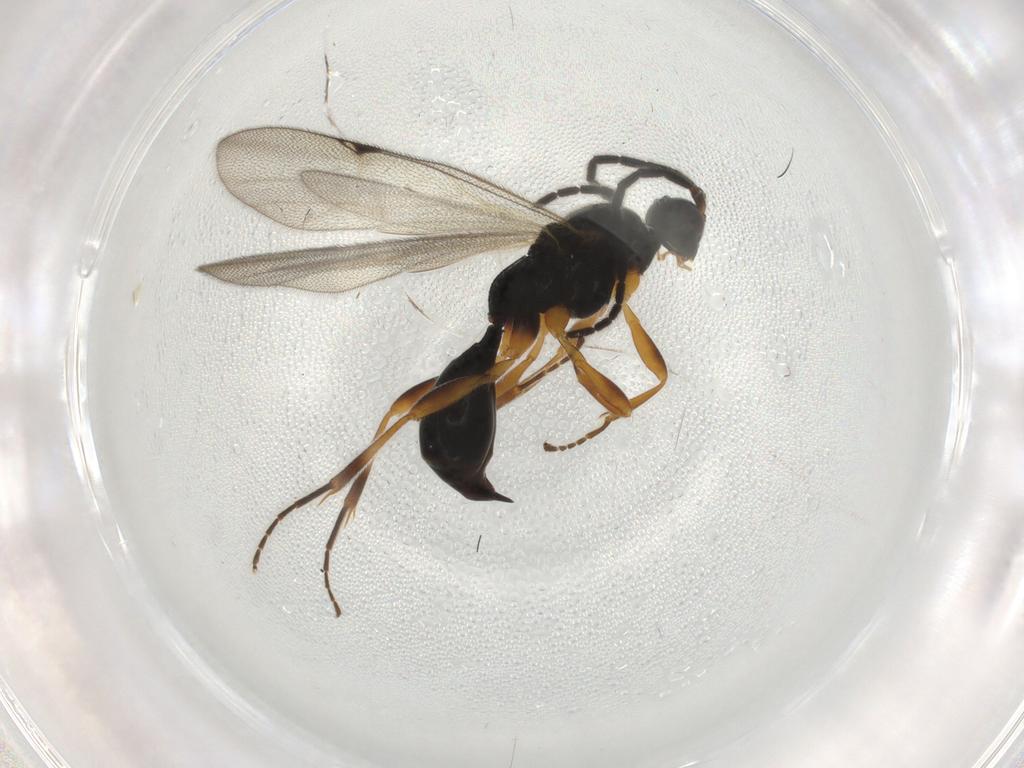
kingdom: Animalia
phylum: Arthropoda
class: Insecta
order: Hymenoptera
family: Proctotrupidae
